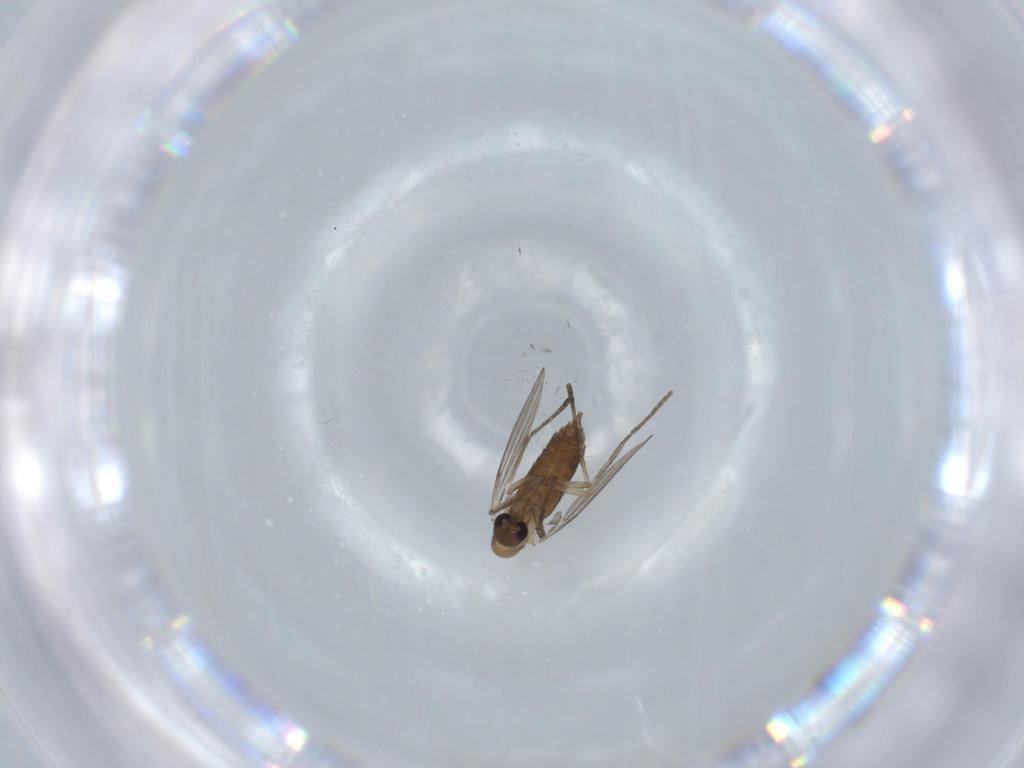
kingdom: Animalia
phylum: Arthropoda
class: Insecta
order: Diptera
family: Psychodidae
